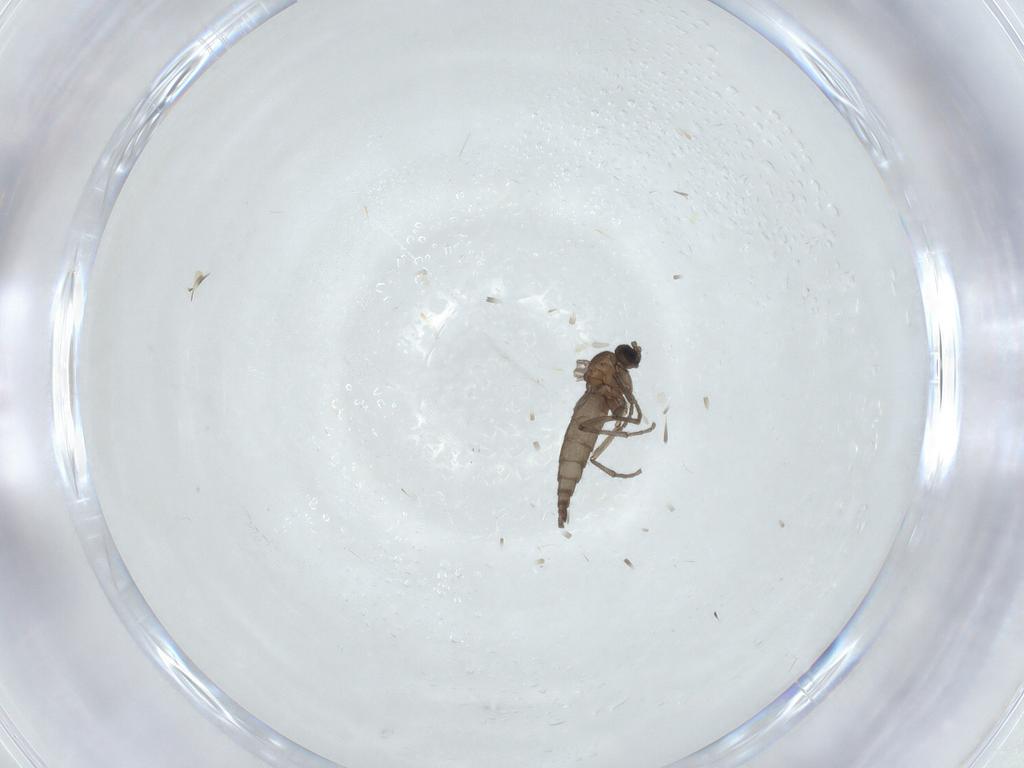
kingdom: Animalia
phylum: Arthropoda
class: Insecta
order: Diptera
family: Sciaridae
